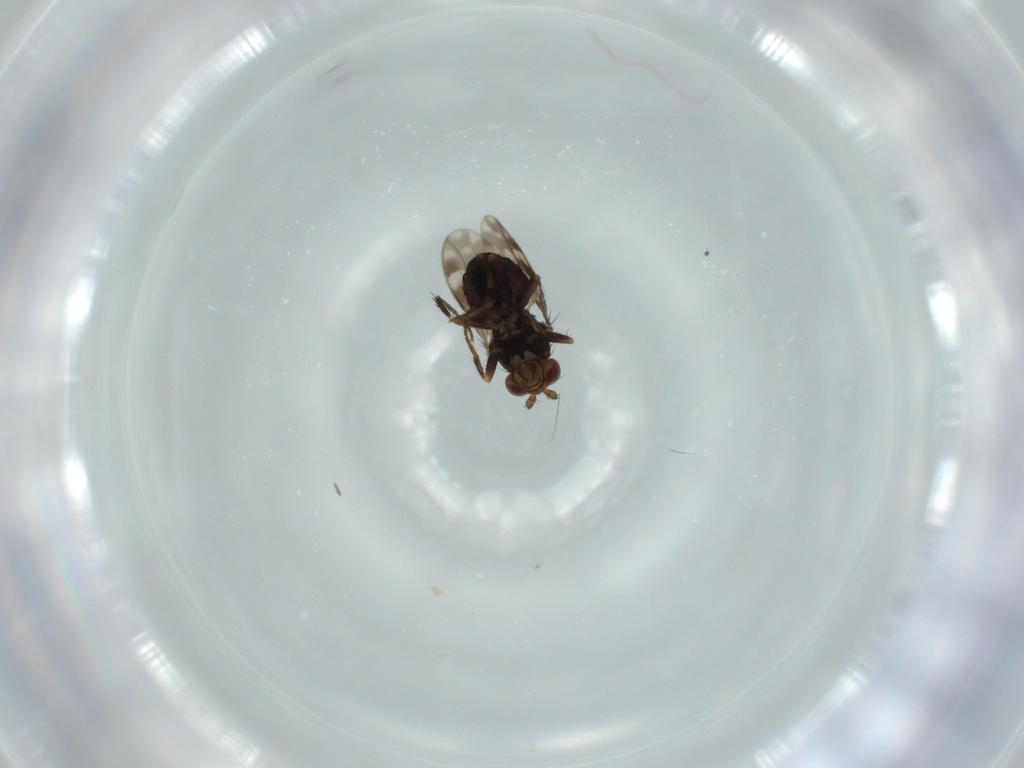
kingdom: Animalia
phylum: Arthropoda
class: Insecta
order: Diptera
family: Sphaeroceridae
